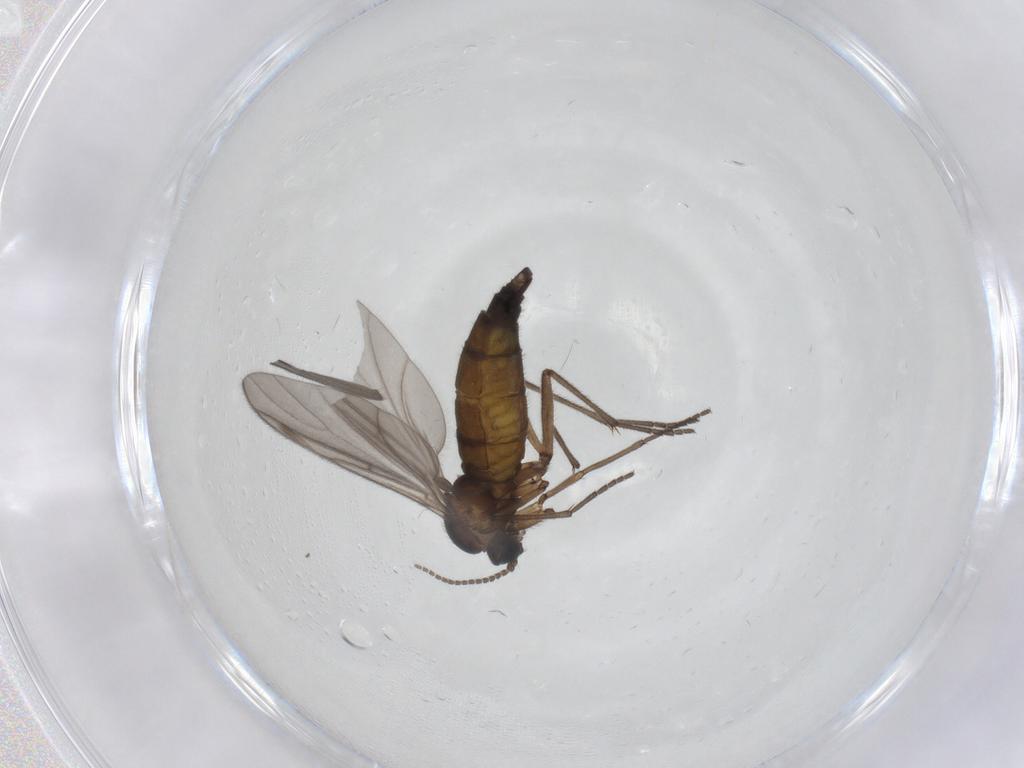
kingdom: Animalia
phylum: Arthropoda
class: Insecta
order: Diptera
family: Sciaridae
